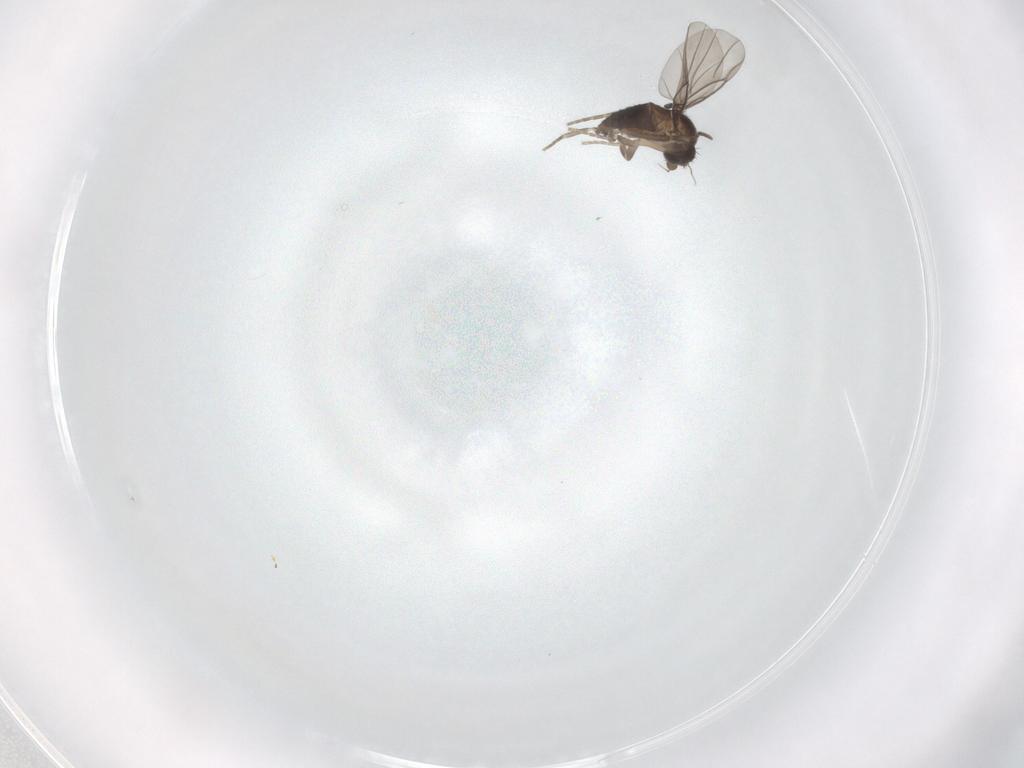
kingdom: Animalia
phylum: Arthropoda
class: Insecta
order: Diptera
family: Phoridae
